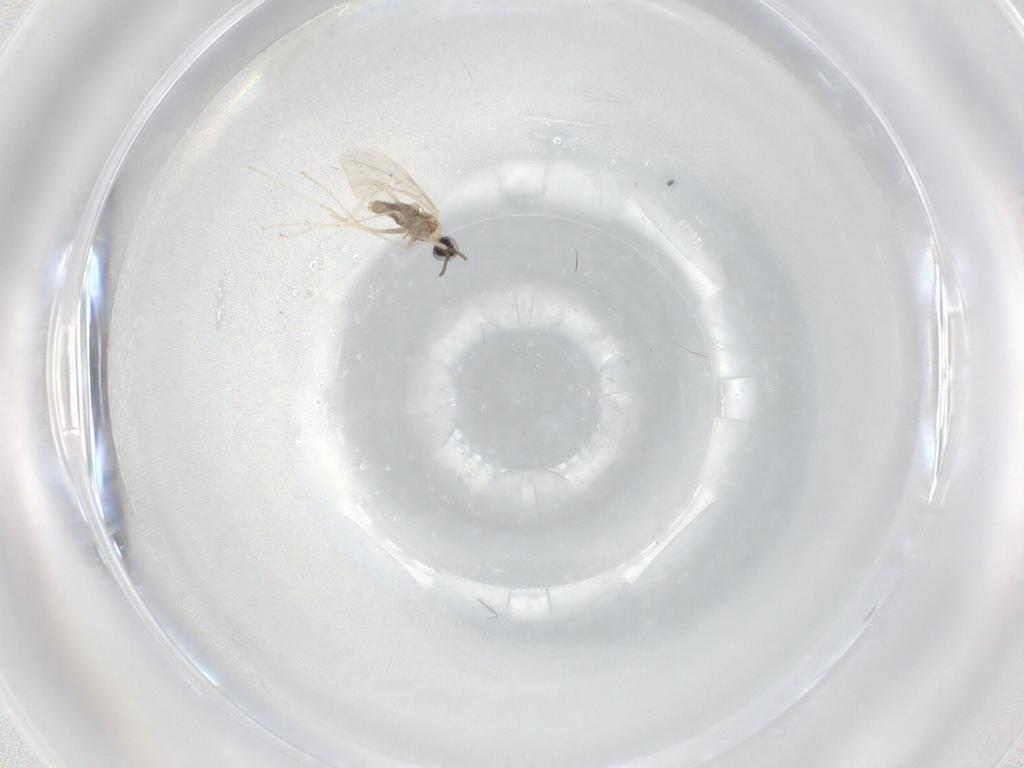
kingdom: Animalia
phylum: Arthropoda
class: Insecta
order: Diptera
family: Cecidomyiidae
